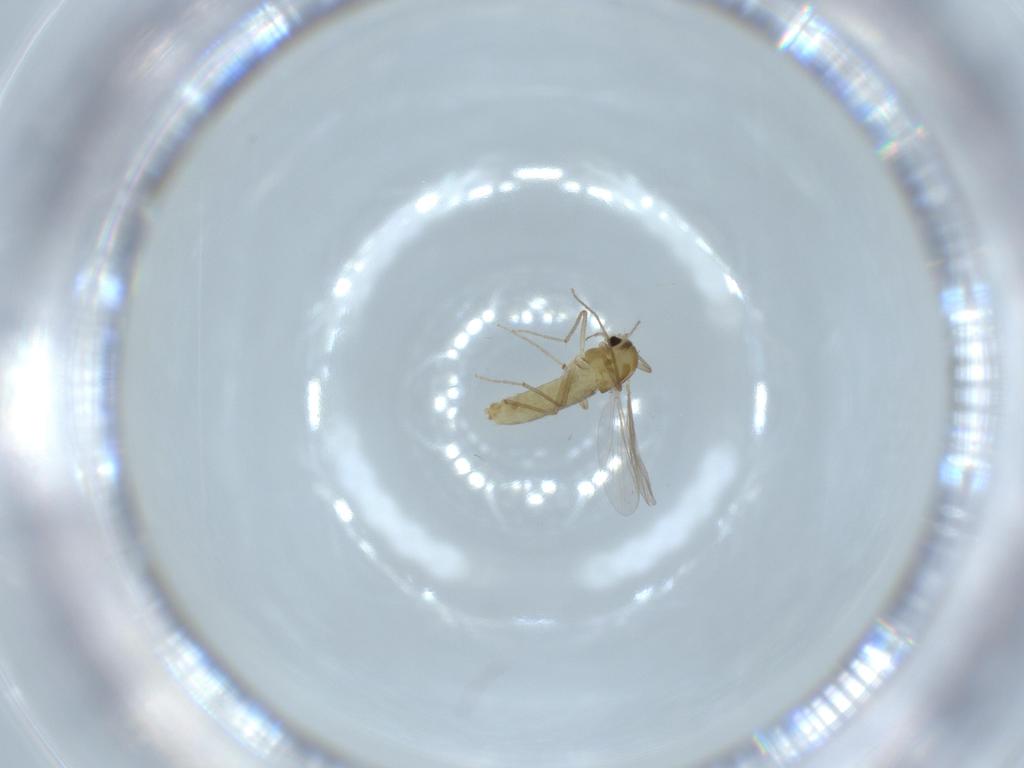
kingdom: Animalia
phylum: Arthropoda
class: Insecta
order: Diptera
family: Chironomidae
